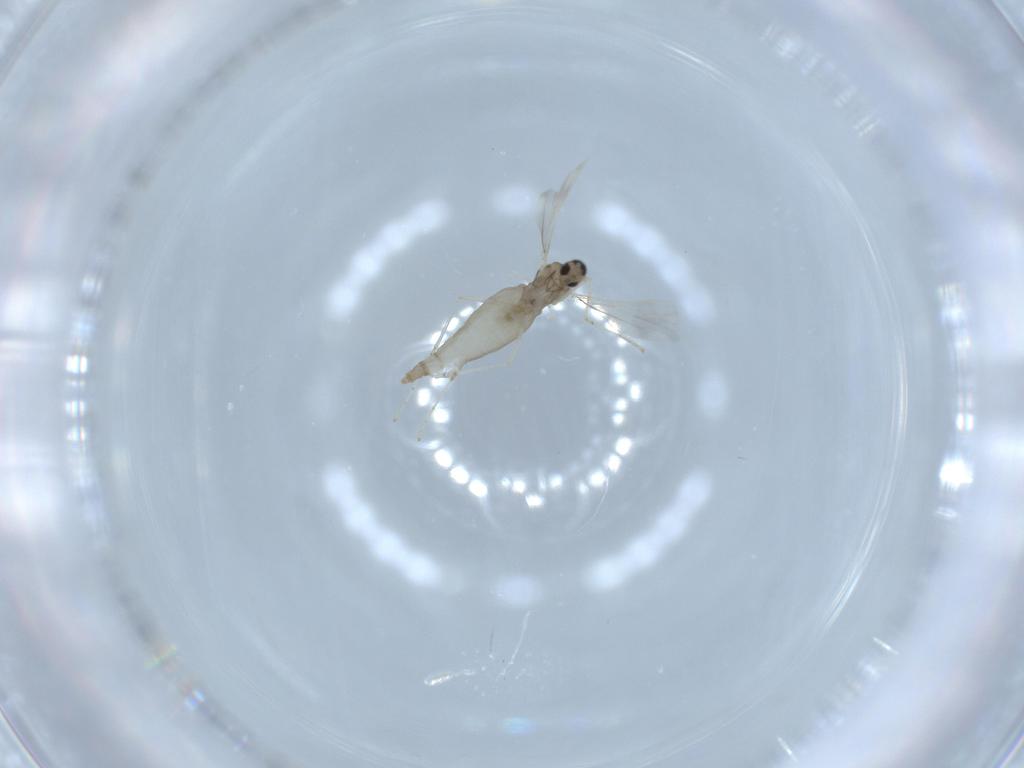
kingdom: Animalia
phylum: Arthropoda
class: Insecta
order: Diptera
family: Cecidomyiidae
